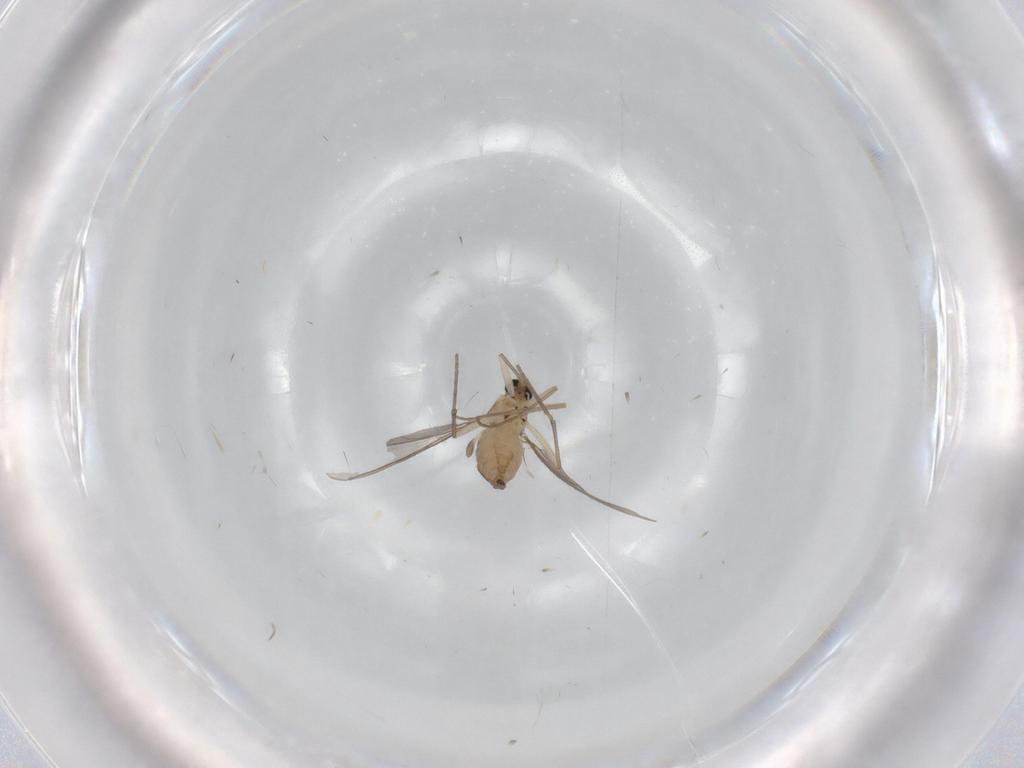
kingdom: Animalia
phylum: Arthropoda
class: Insecta
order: Diptera
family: Sciaridae
